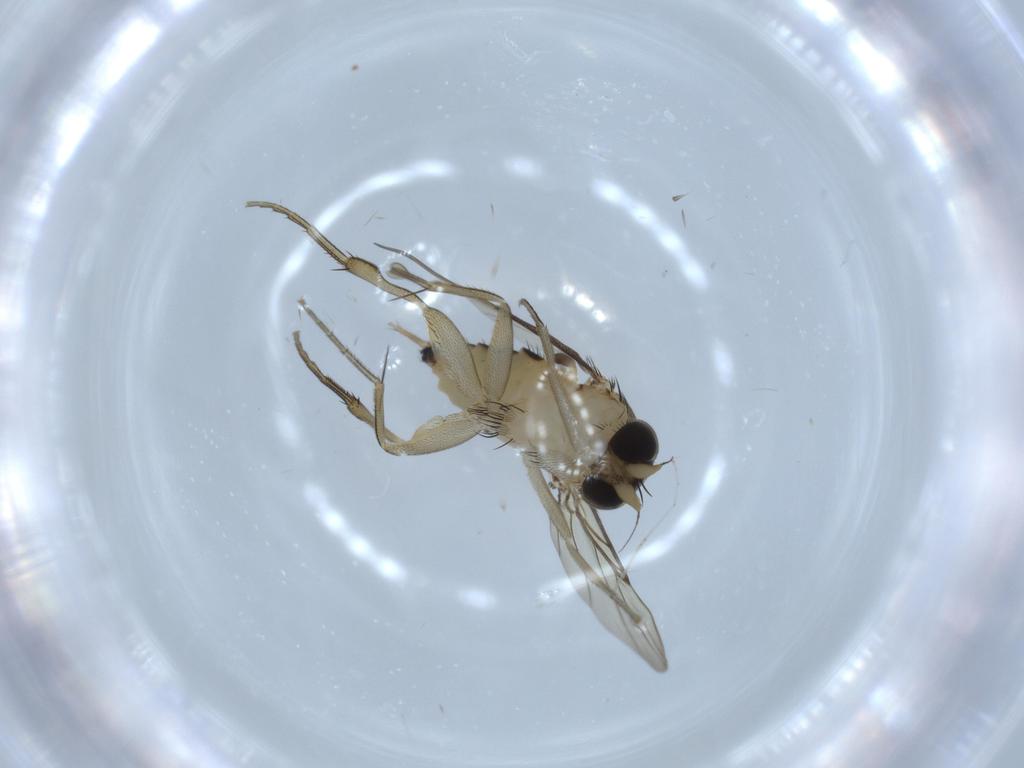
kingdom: Animalia
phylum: Arthropoda
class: Insecta
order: Diptera
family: Phoridae
